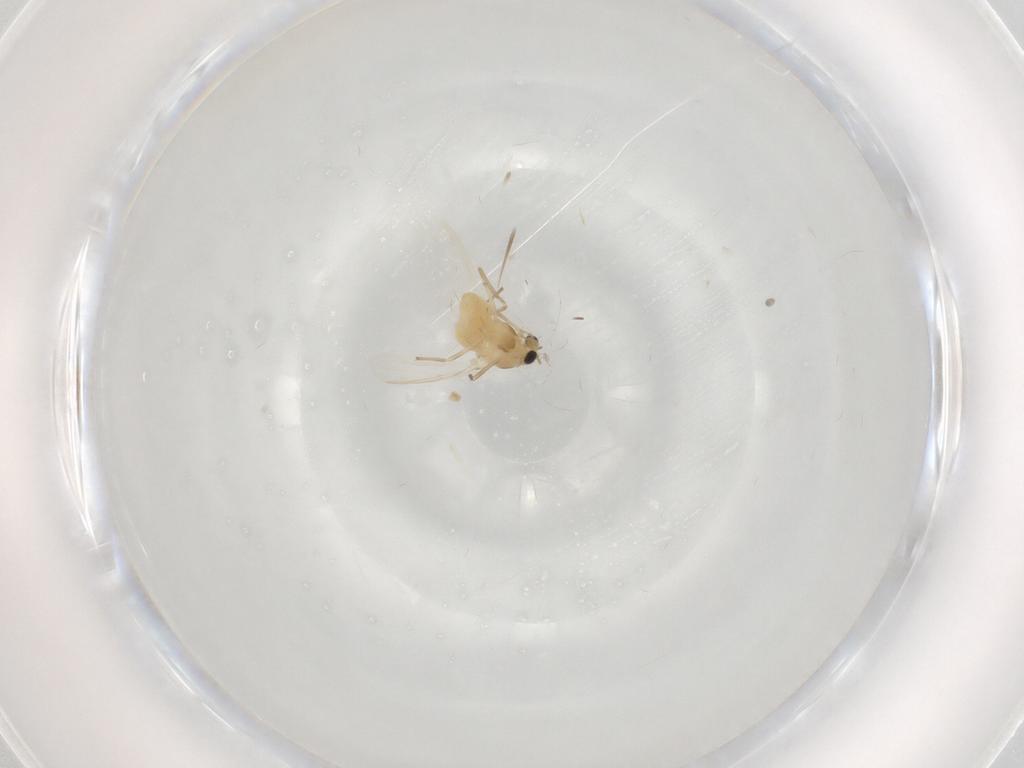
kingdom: Animalia
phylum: Arthropoda
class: Insecta
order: Diptera
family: Chironomidae
